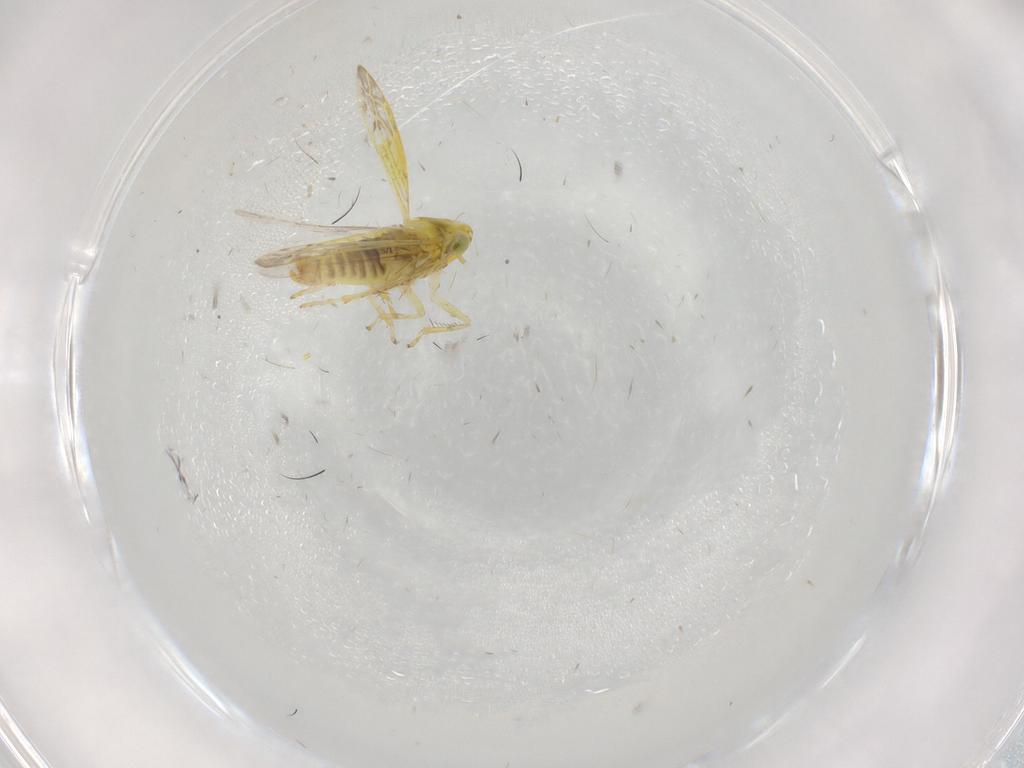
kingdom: Animalia
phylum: Arthropoda
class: Insecta
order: Hemiptera
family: Cicadellidae
